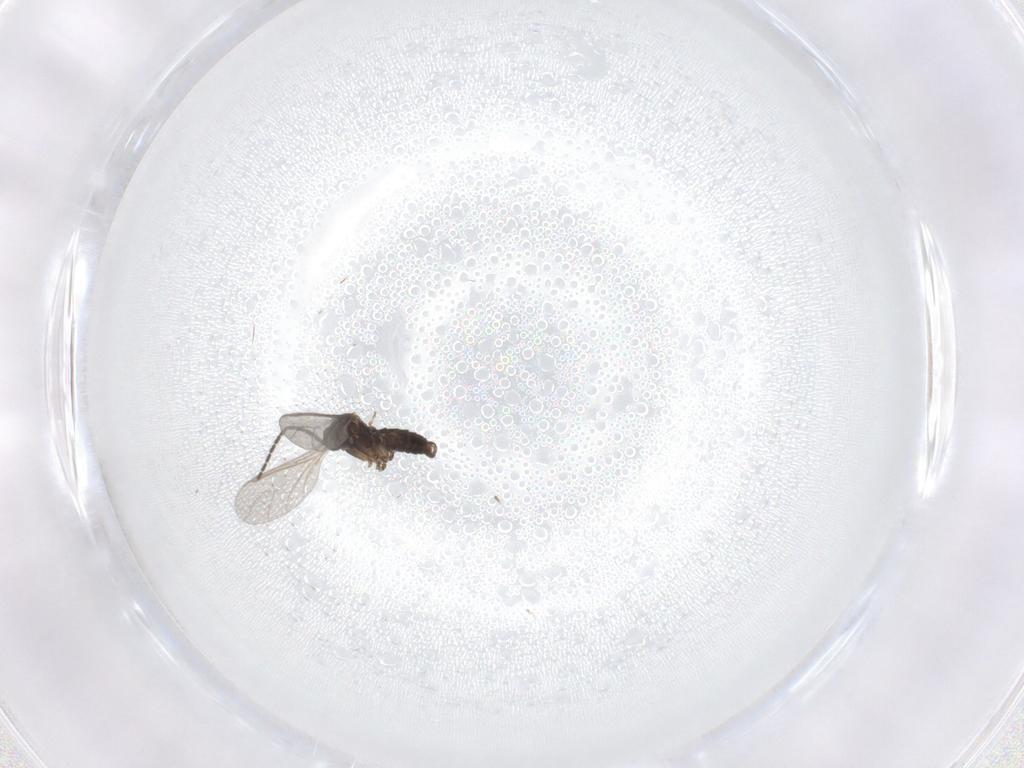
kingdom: Animalia
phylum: Arthropoda
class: Insecta
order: Diptera
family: Sciaridae
